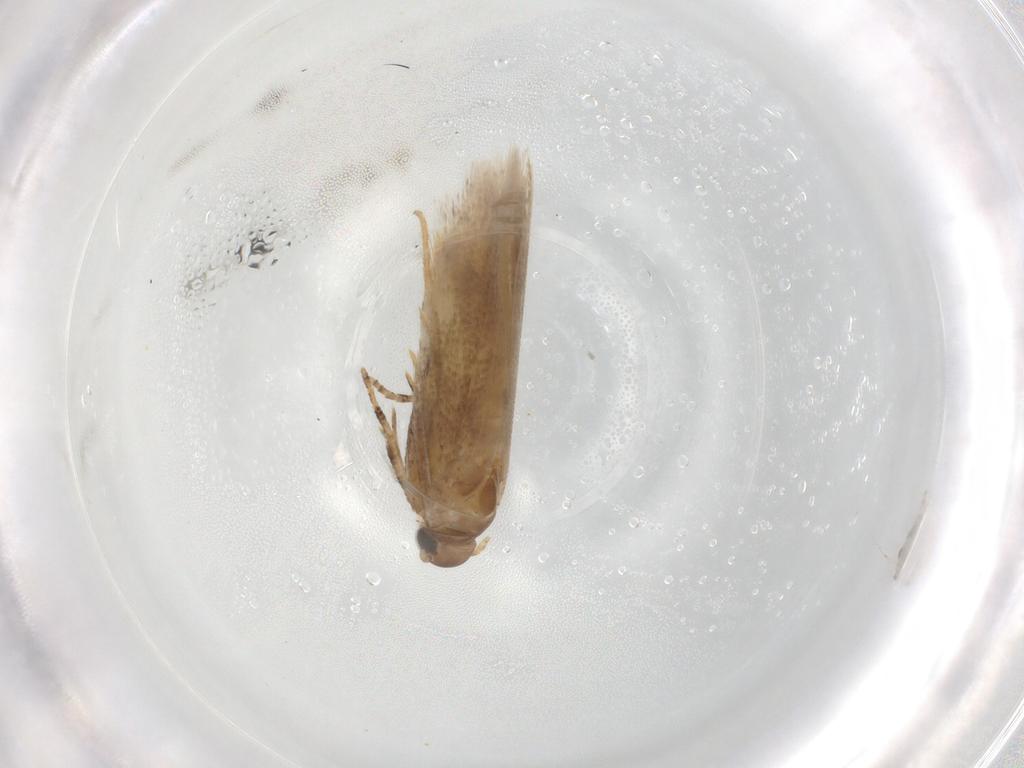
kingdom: Animalia
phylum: Arthropoda
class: Insecta
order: Lepidoptera
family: Gelechiidae
